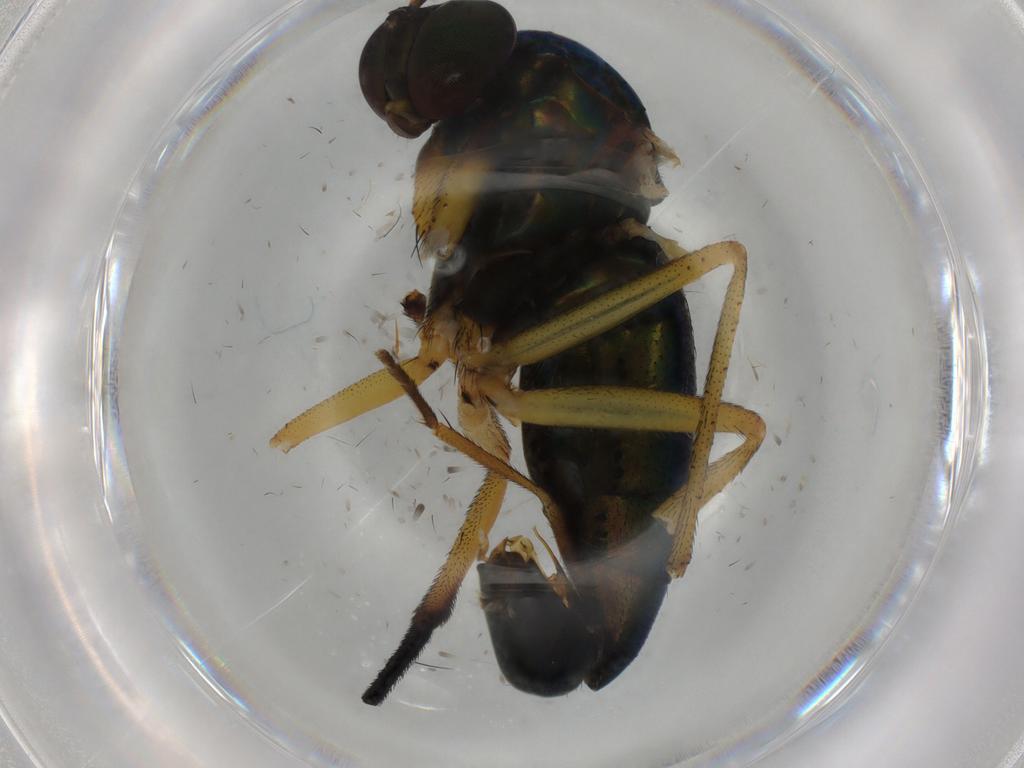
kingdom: Animalia
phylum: Arthropoda
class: Insecta
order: Diptera
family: Anthomyiidae
